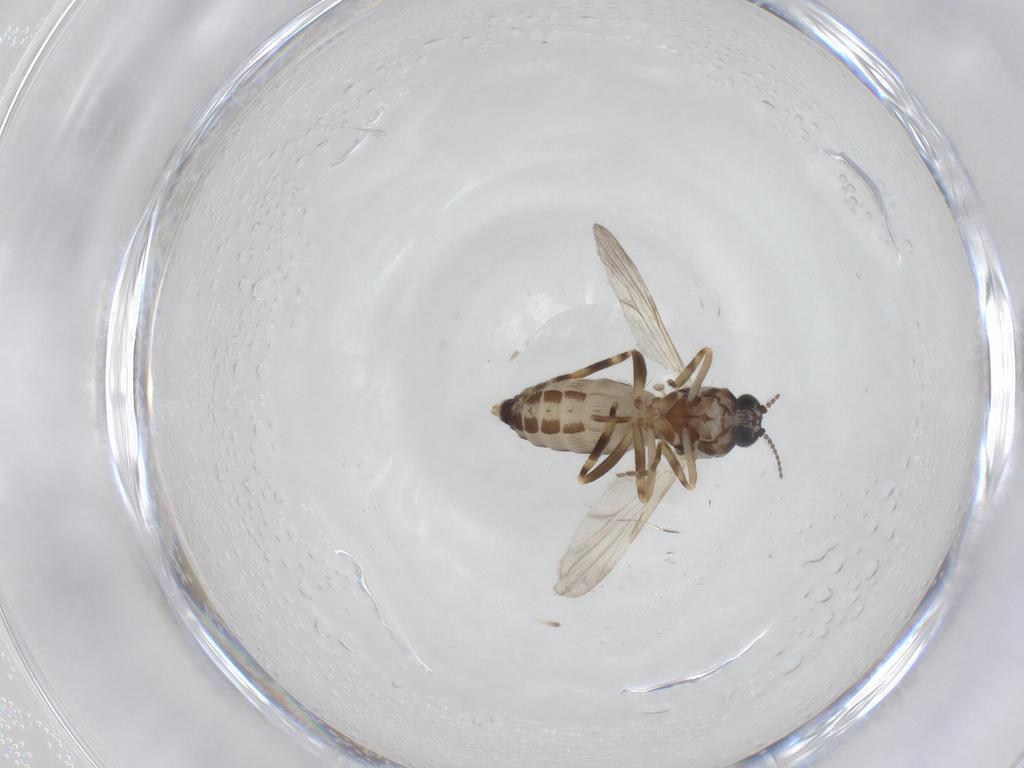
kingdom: Animalia
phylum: Arthropoda
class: Insecta
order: Diptera
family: Ceratopogonidae
